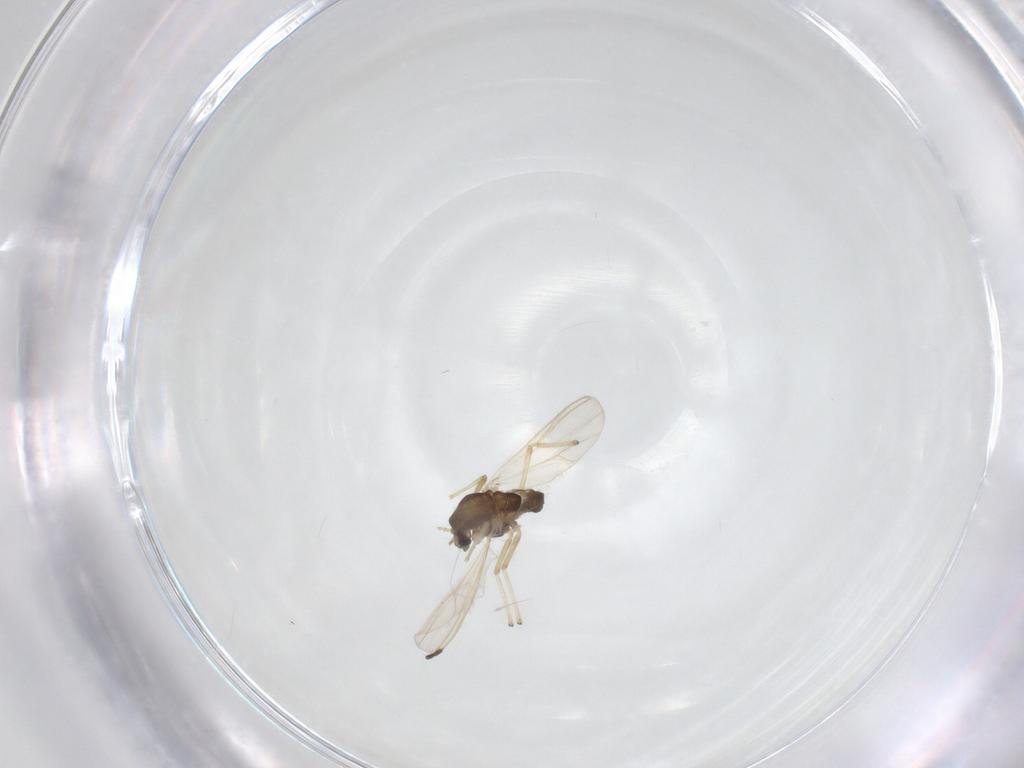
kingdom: Animalia
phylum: Arthropoda
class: Insecta
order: Diptera
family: Chironomidae
